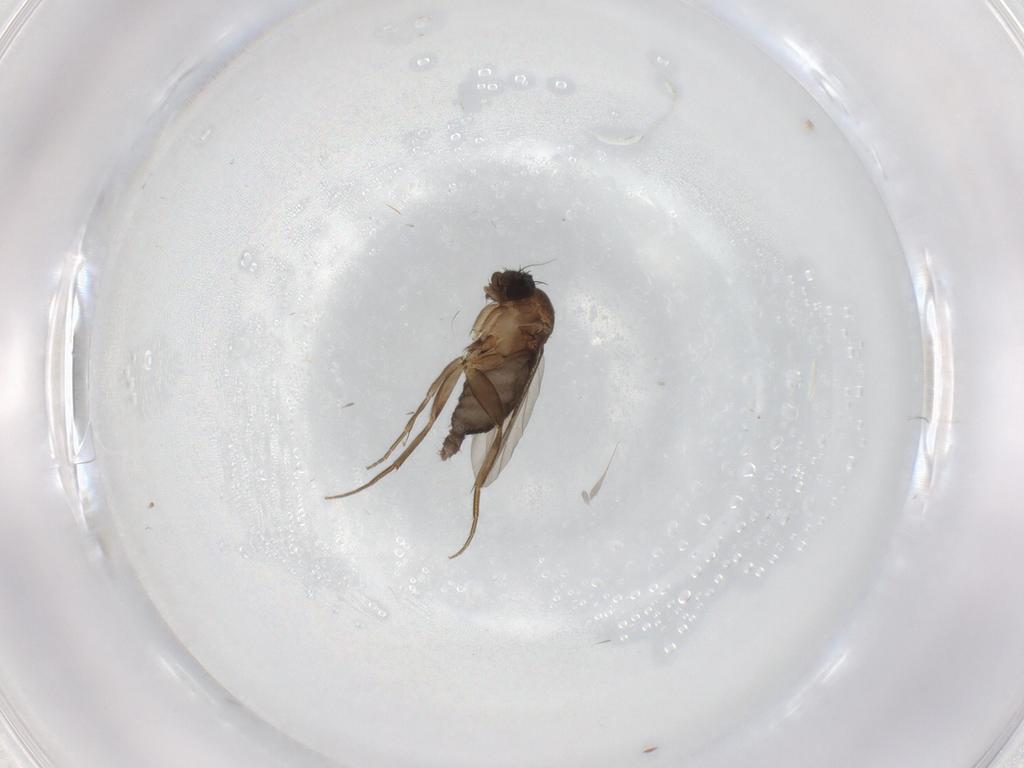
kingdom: Animalia
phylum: Arthropoda
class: Insecta
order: Diptera
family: Phoridae
